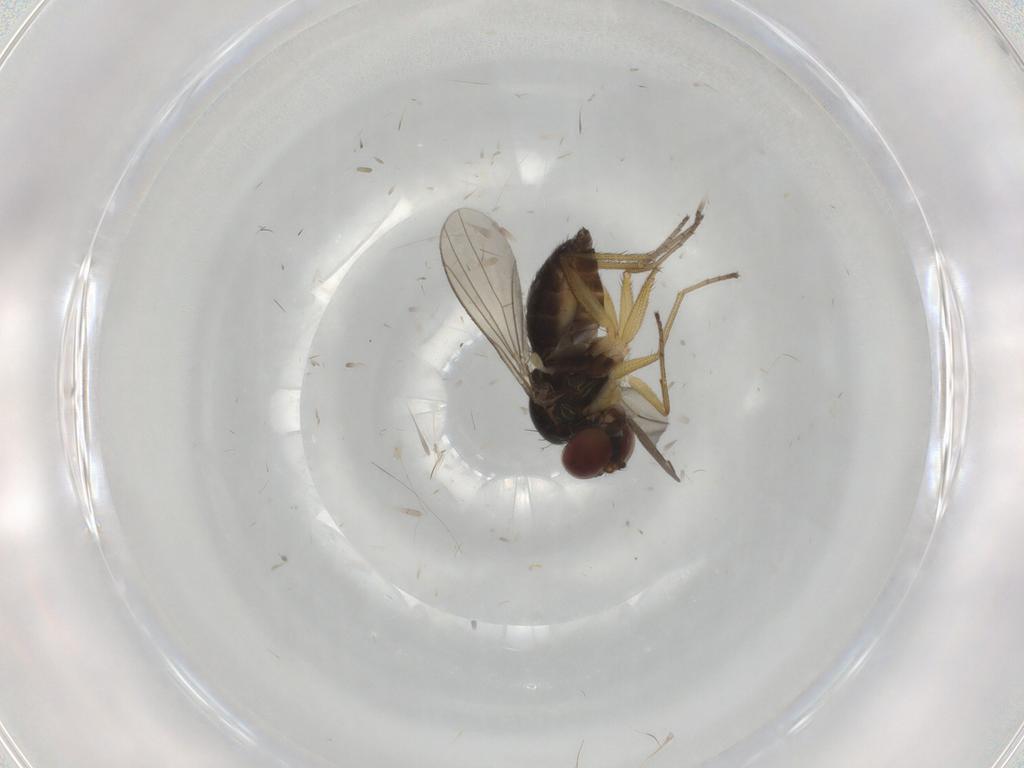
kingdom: Animalia
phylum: Arthropoda
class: Insecta
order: Diptera
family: Dolichopodidae
